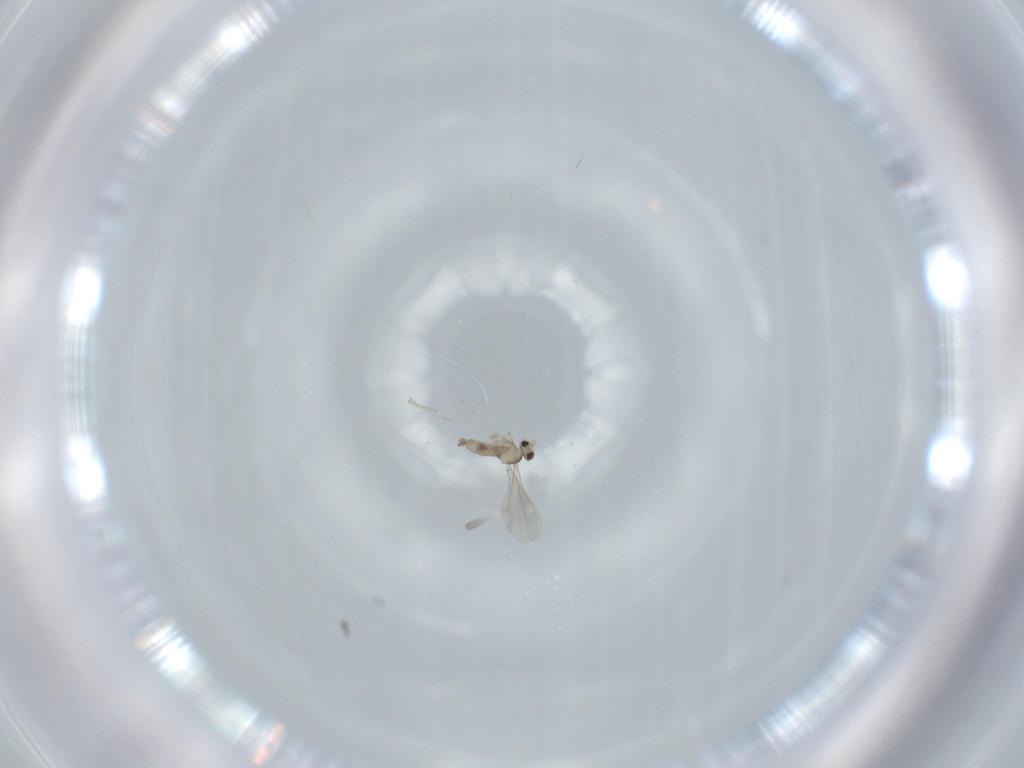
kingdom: Animalia
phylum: Arthropoda
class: Insecta
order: Diptera
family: Cecidomyiidae
